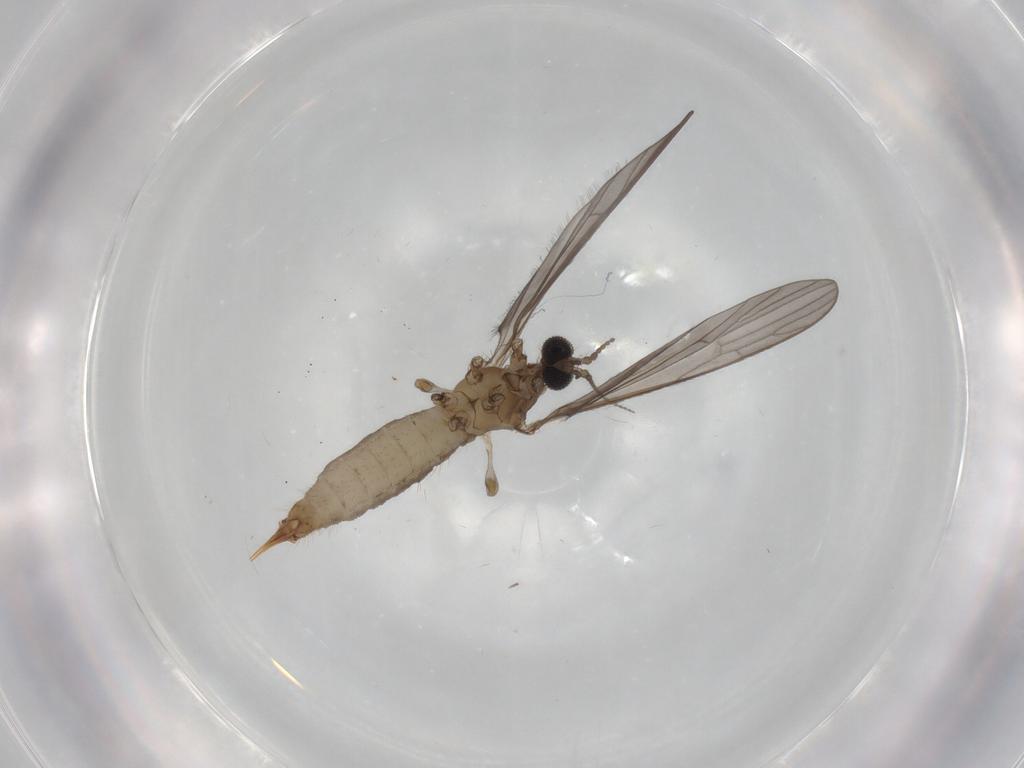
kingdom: Animalia
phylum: Arthropoda
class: Insecta
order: Diptera
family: Limoniidae
